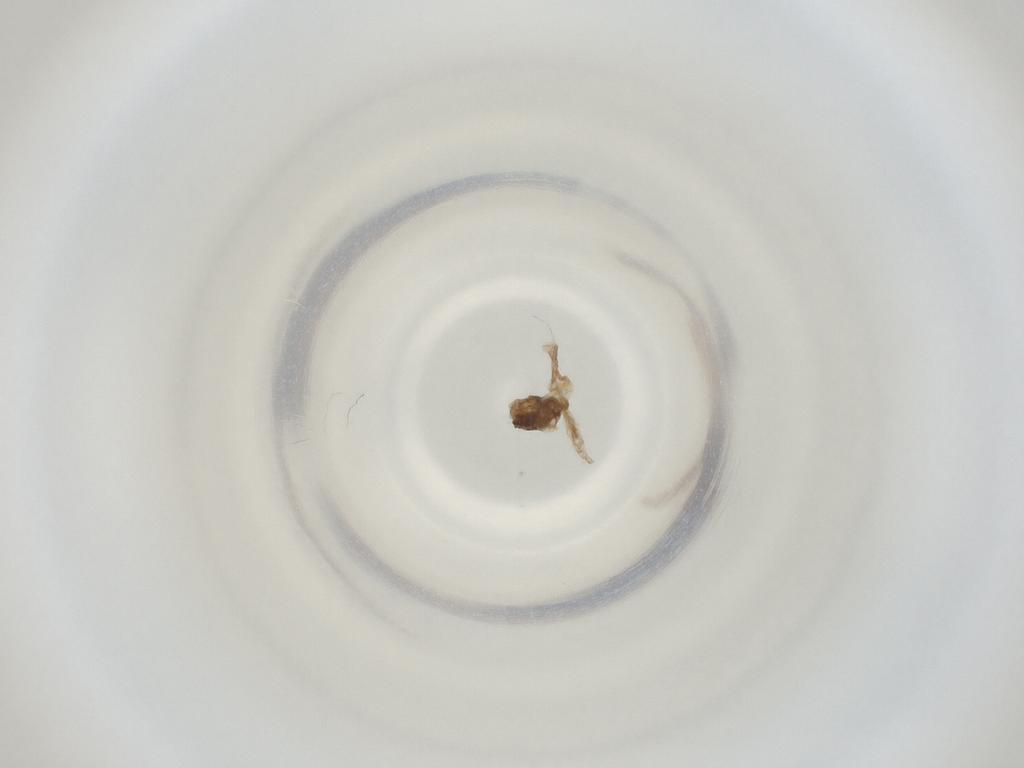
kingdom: Animalia
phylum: Arthropoda
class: Insecta
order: Diptera
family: Cecidomyiidae
